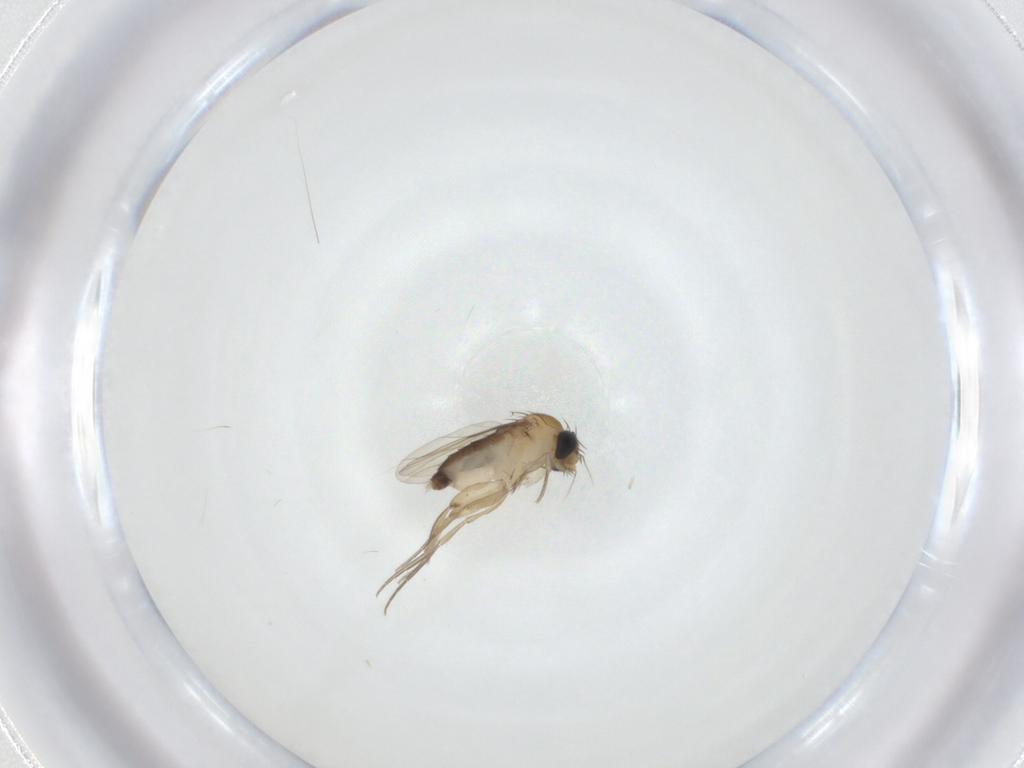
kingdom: Animalia
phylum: Arthropoda
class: Insecta
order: Diptera
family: Phoridae
